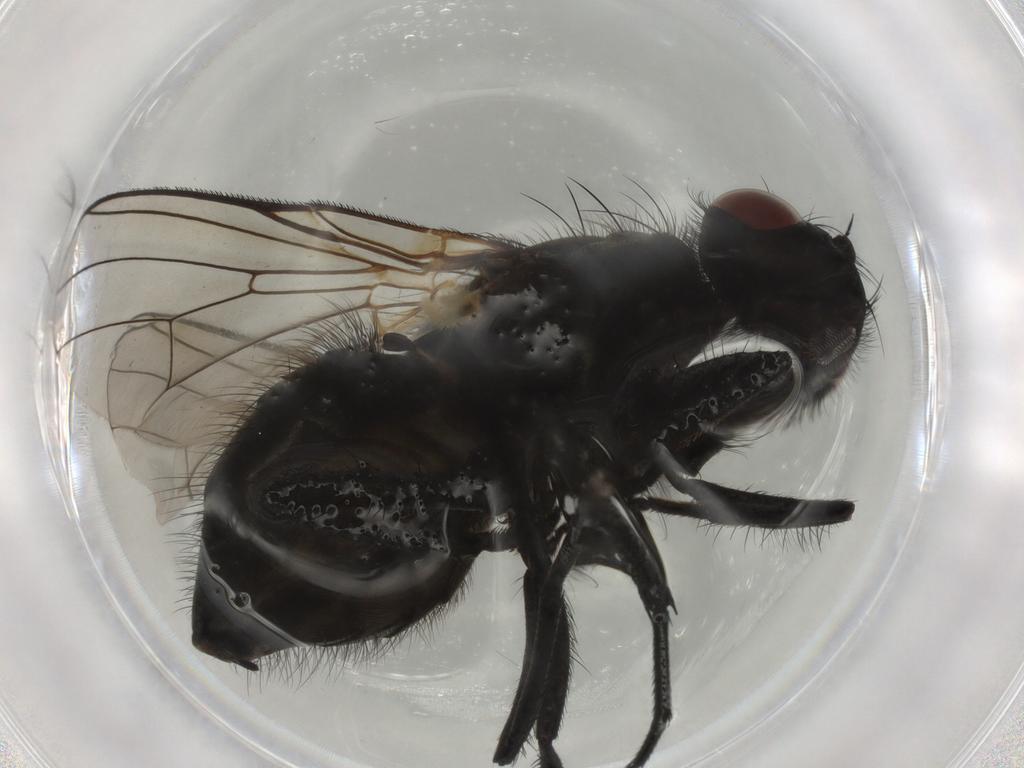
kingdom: Animalia
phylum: Arthropoda
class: Insecta
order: Diptera
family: Muscidae
